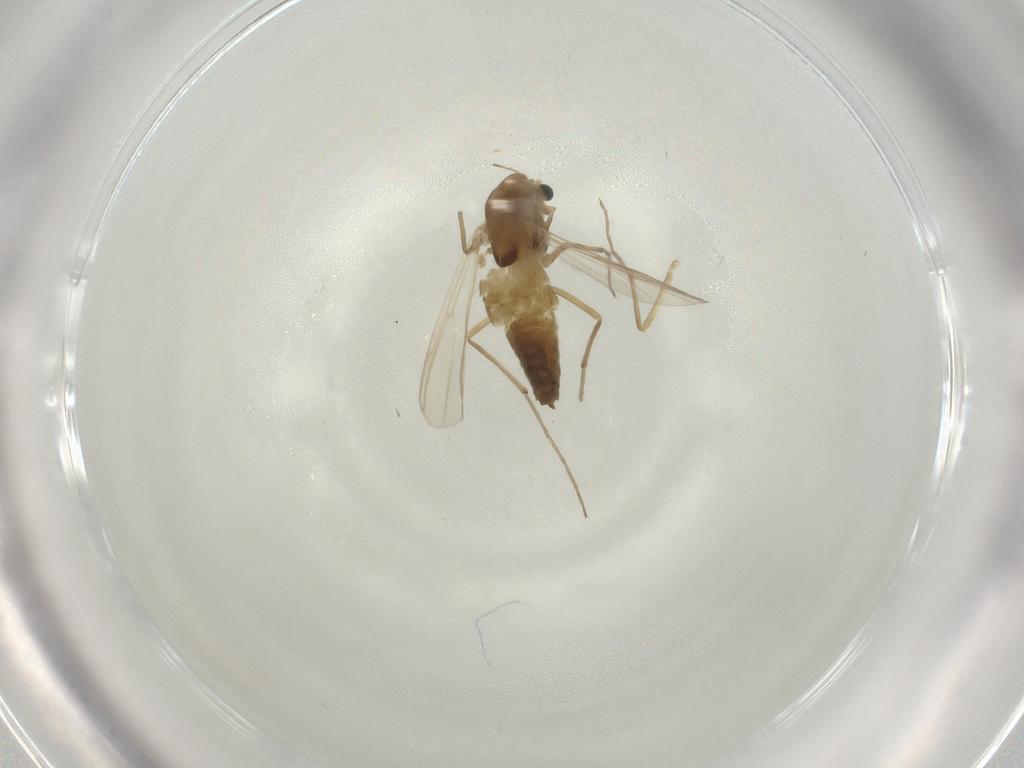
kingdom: Animalia
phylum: Arthropoda
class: Insecta
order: Diptera
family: Chironomidae
